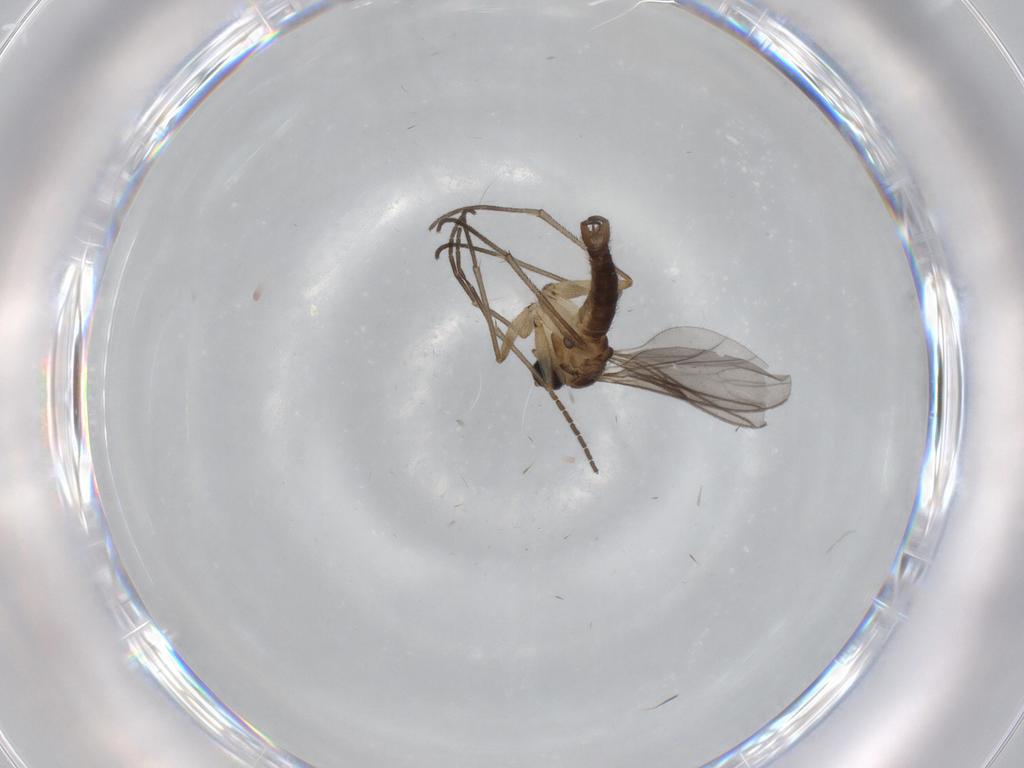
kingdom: Animalia
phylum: Arthropoda
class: Insecta
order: Diptera
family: Sciaridae
